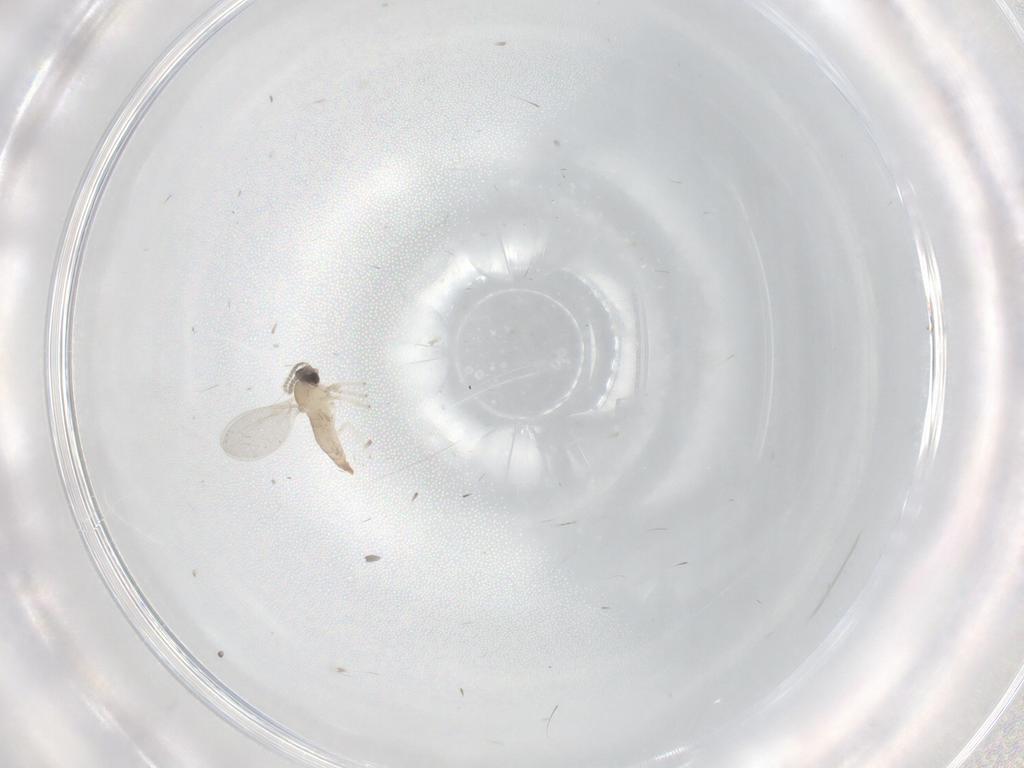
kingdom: Animalia
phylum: Arthropoda
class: Insecta
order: Diptera
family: Cecidomyiidae
